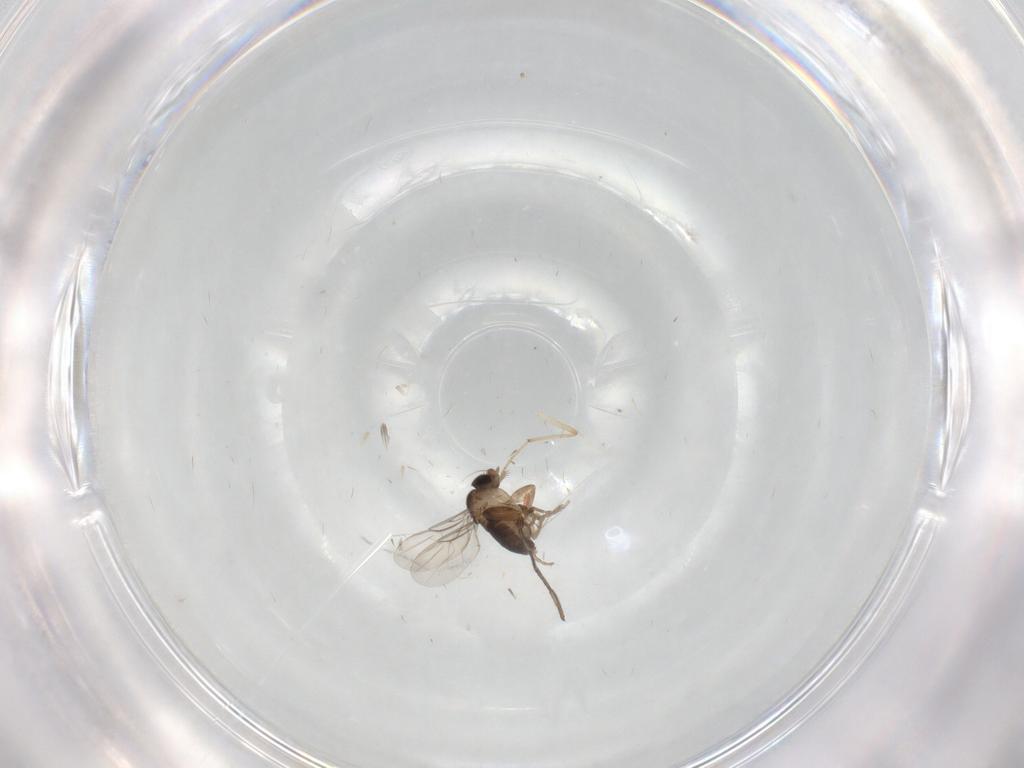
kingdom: Animalia
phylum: Arthropoda
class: Insecta
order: Diptera
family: Phoridae
